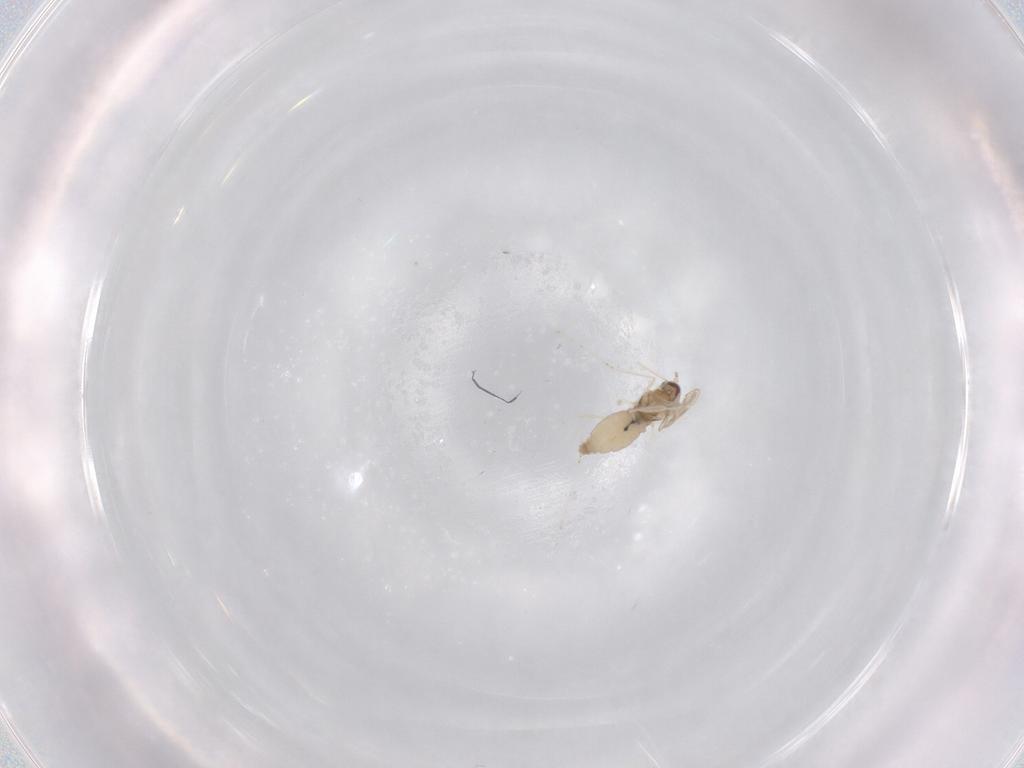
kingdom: Animalia
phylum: Arthropoda
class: Insecta
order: Diptera
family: Cecidomyiidae
